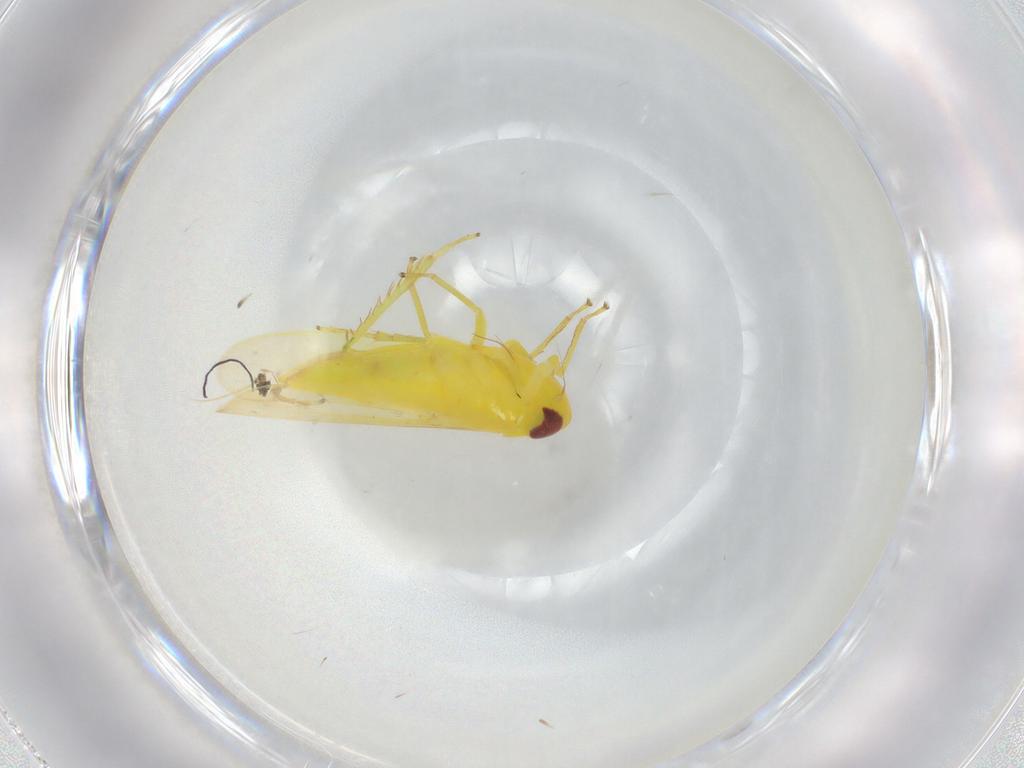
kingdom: Animalia
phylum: Arthropoda
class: Insecta
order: Hemiptera
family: Cicadellidae
